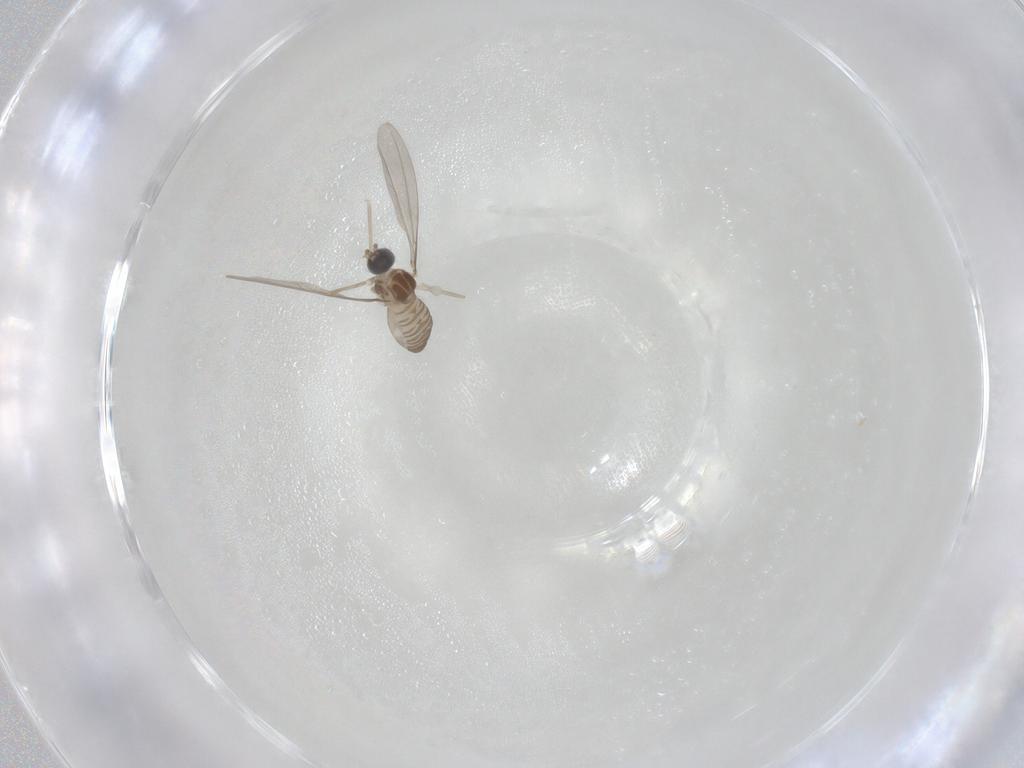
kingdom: Animalia
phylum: Arthropoda
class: Insecta
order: Diptera
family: Cecidomyiidae
